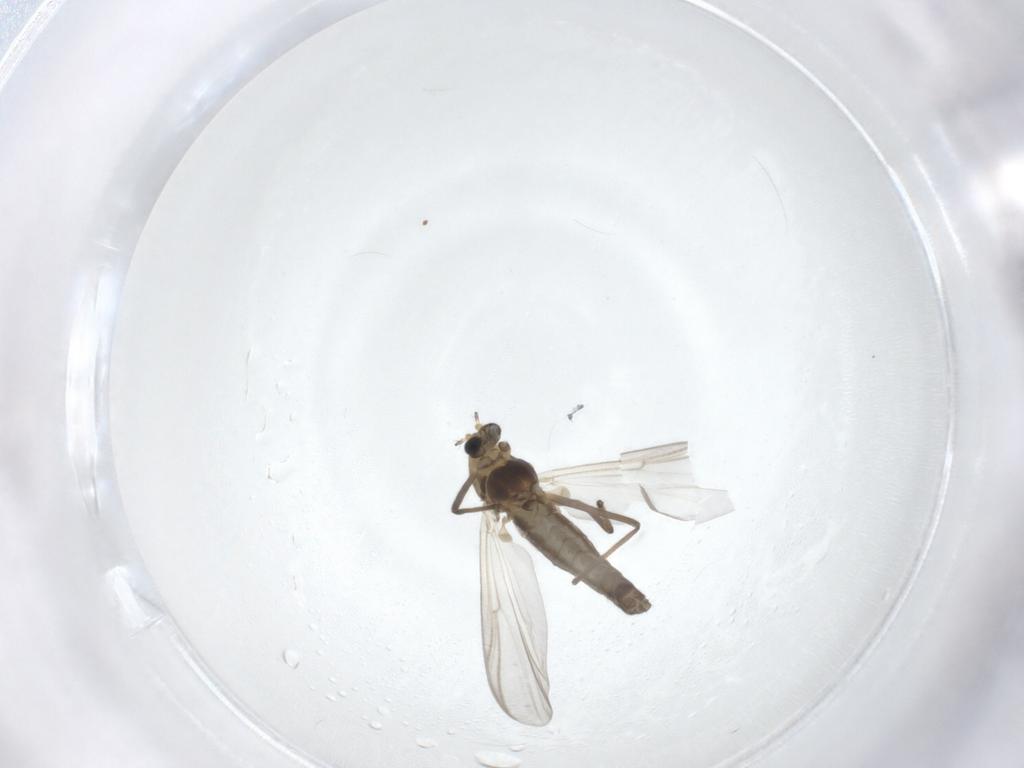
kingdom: Animalia
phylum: Arthropoda
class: Insecta
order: Diptera
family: Chironomidae
